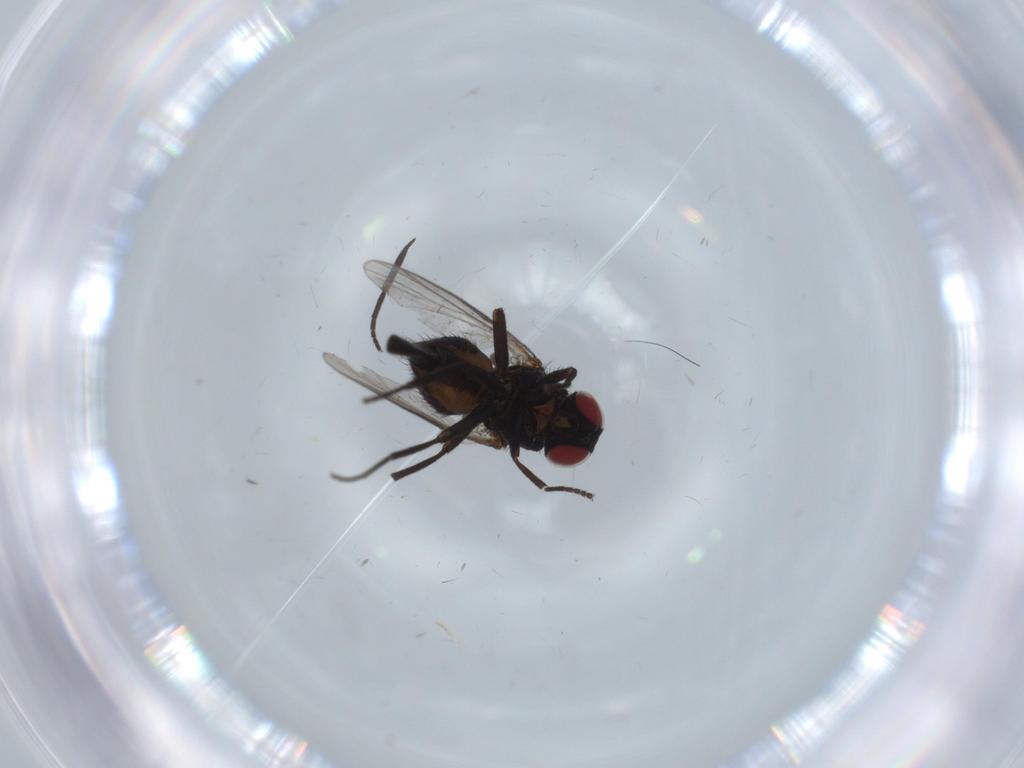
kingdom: Animalia
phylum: Arthropoda
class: Insecta
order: Diptera
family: Agromyzidae
